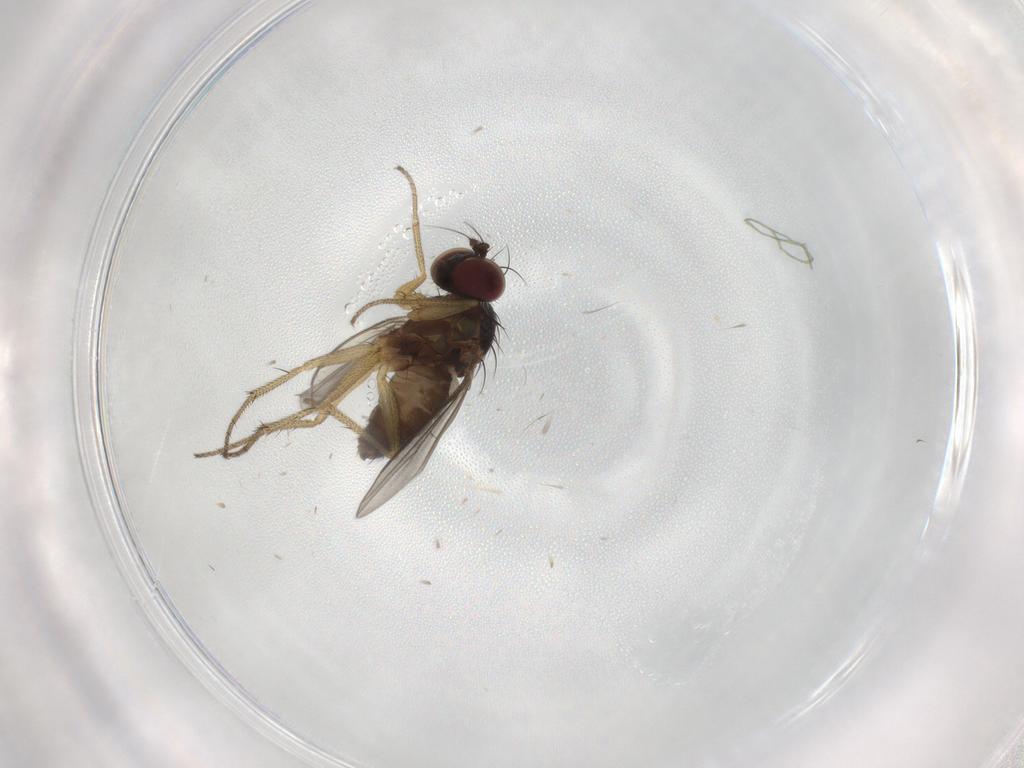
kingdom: Animalia
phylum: Arthropoda
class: Insecta
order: Diptera
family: Dolichopodidae
